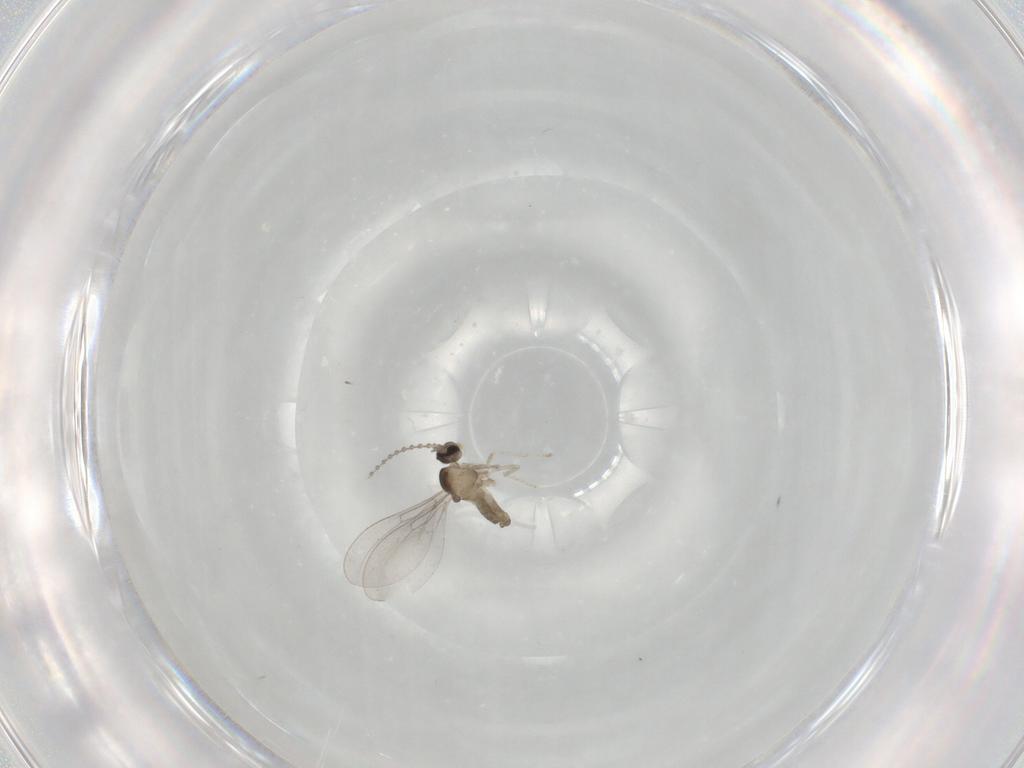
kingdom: Animalia
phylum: Arthropoda
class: Insecta
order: Diptera
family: Cecidomyiidae
